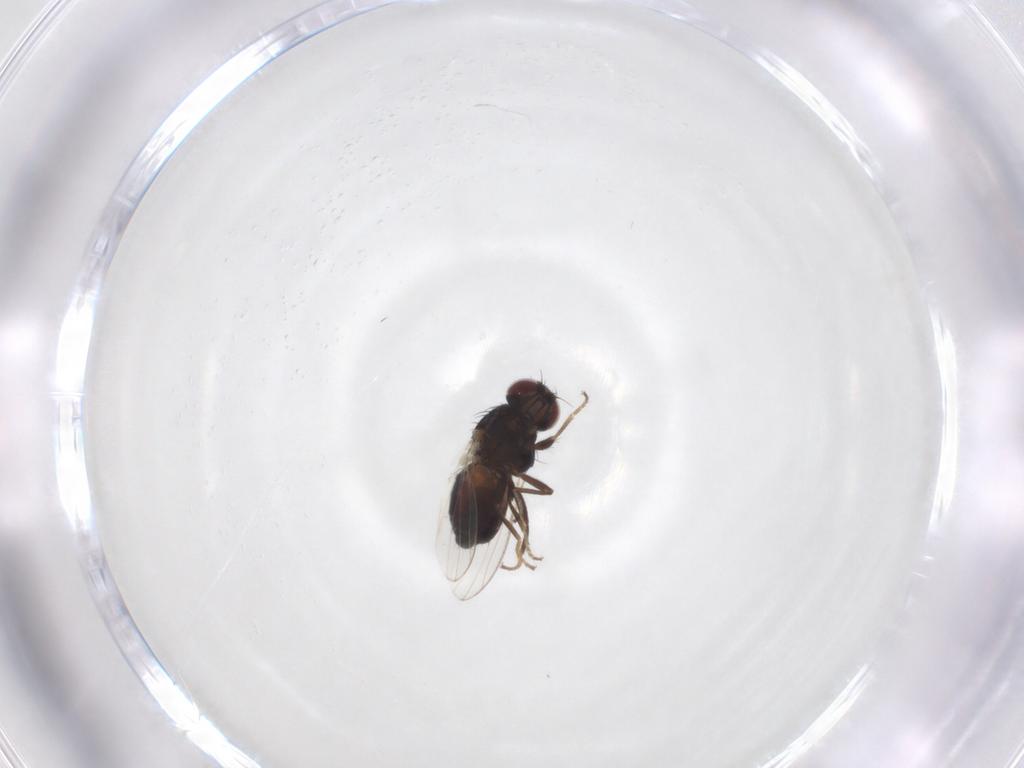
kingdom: Animalia
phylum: Arthropoda
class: Insecta
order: Diptera
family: Carnidae
